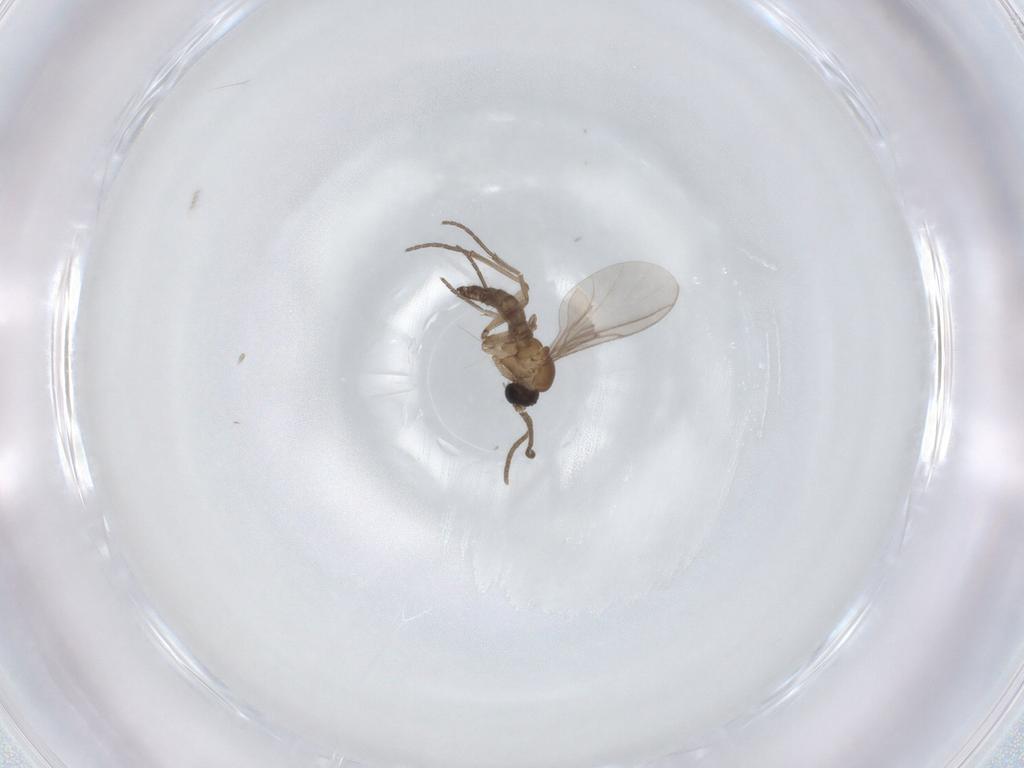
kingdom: Animalia
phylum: Arthropoda
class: Insecta
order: Diptera
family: Sciaridae
